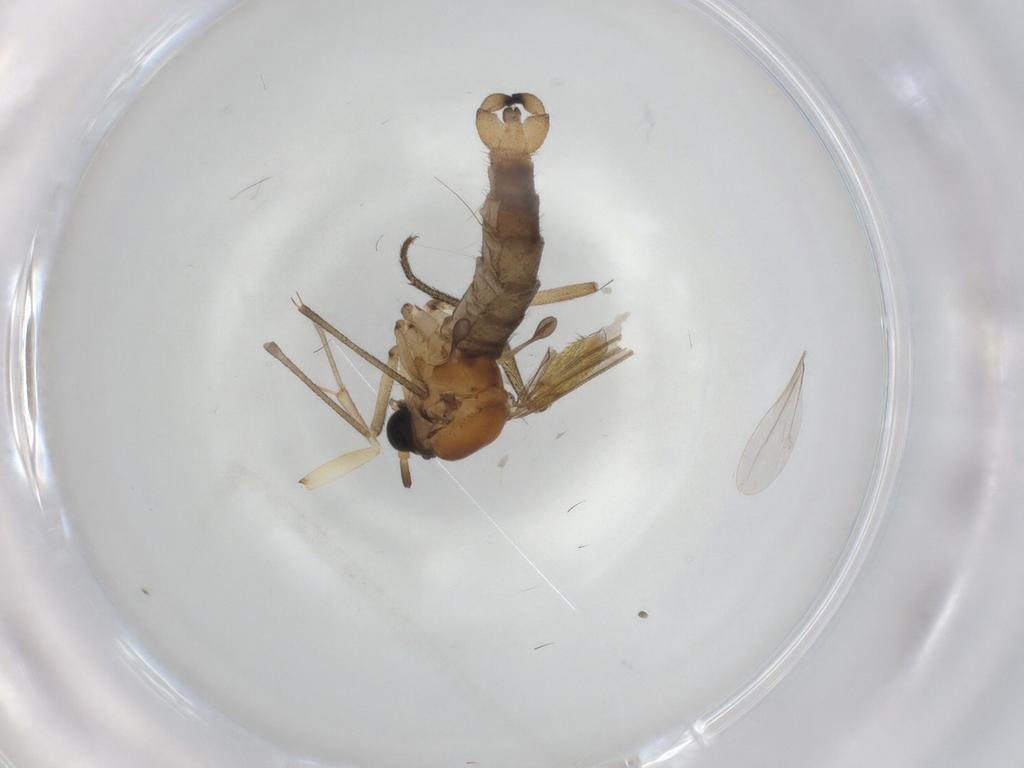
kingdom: Animalia
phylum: Arthropoda
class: Insecta
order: Diptera
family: Sciaridae
